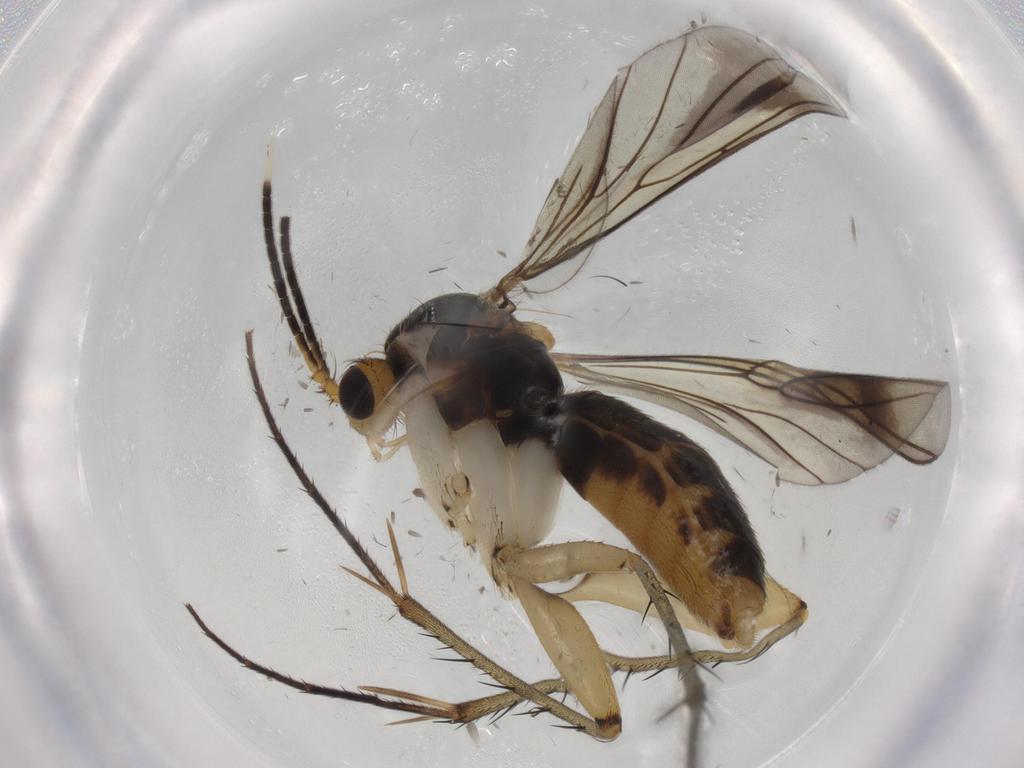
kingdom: Animalia
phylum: Arthropoda
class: Insecta
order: Diptera
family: Mycetophilidae
